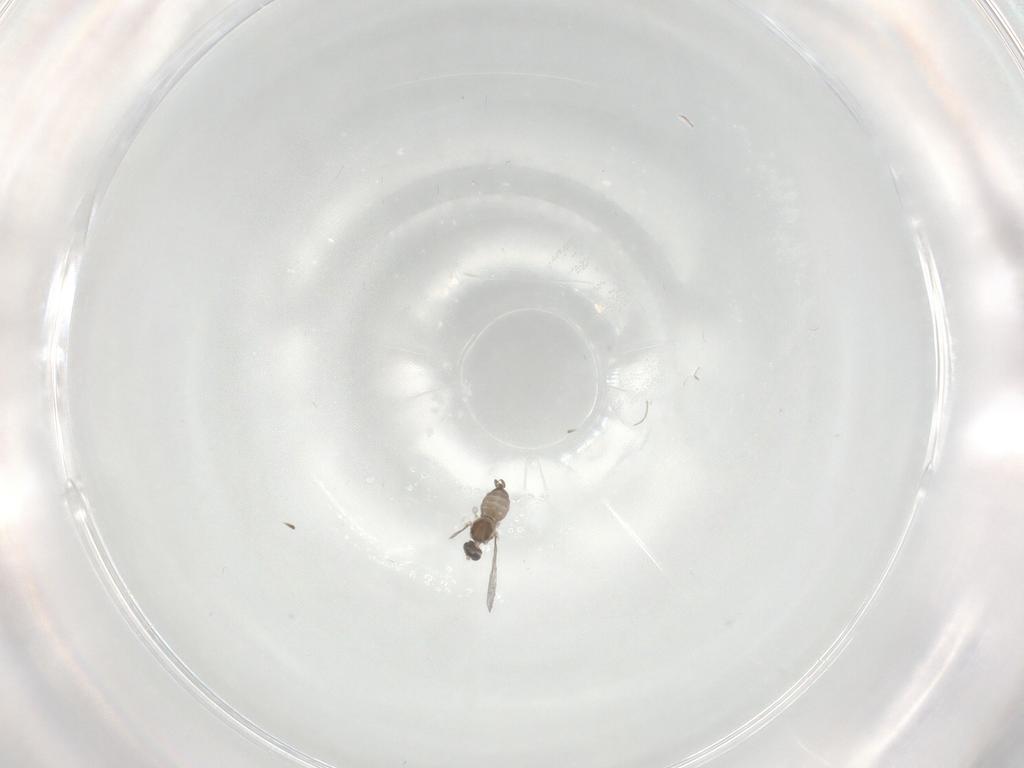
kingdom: Animalia
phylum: Arthropoda
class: Insecta
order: Diptera
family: Cecidomyiidae
